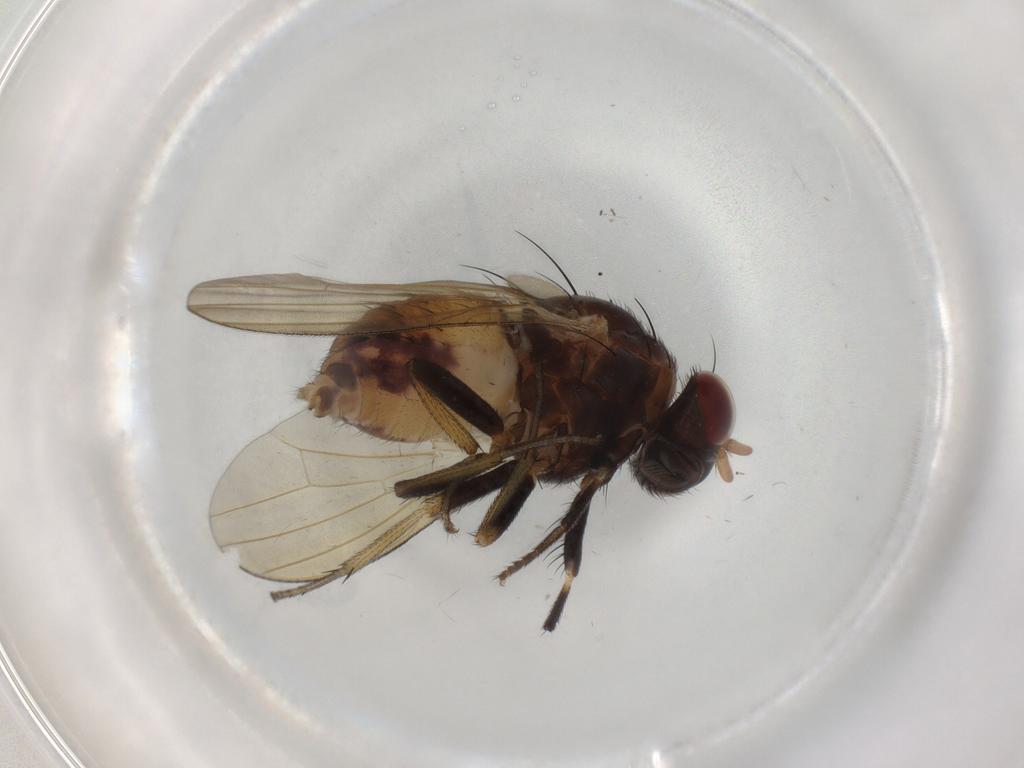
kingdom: Animalia
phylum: Arthropoda
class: Insecta
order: Diptera
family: Lauxaniidae
